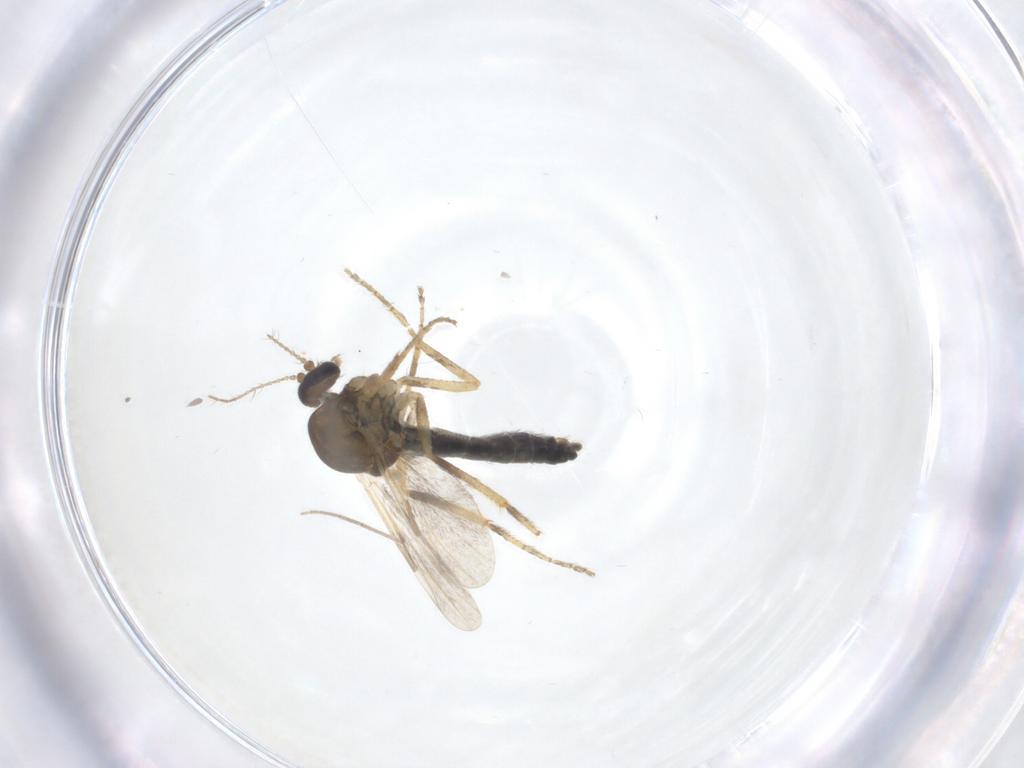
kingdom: Animalia
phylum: Arthropoda
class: Insecta
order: Diptera
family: Ceratopogonidae
